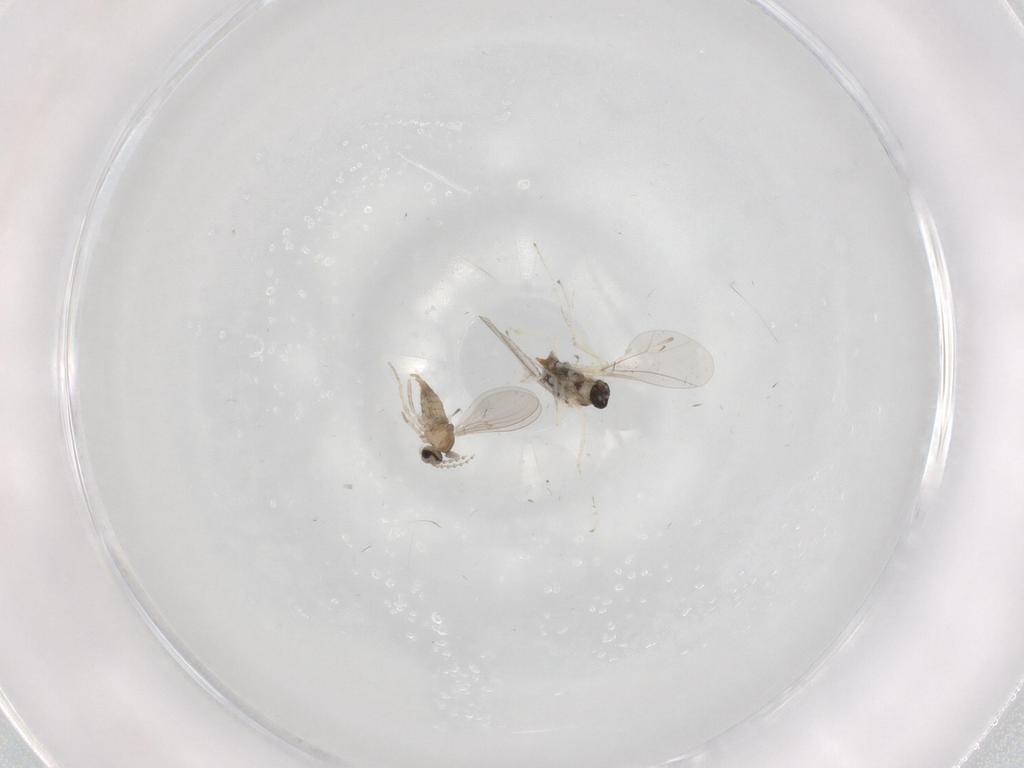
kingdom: Animalia
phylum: Arthropoda
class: Insecta
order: Diptera
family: Cecidomyiidae
